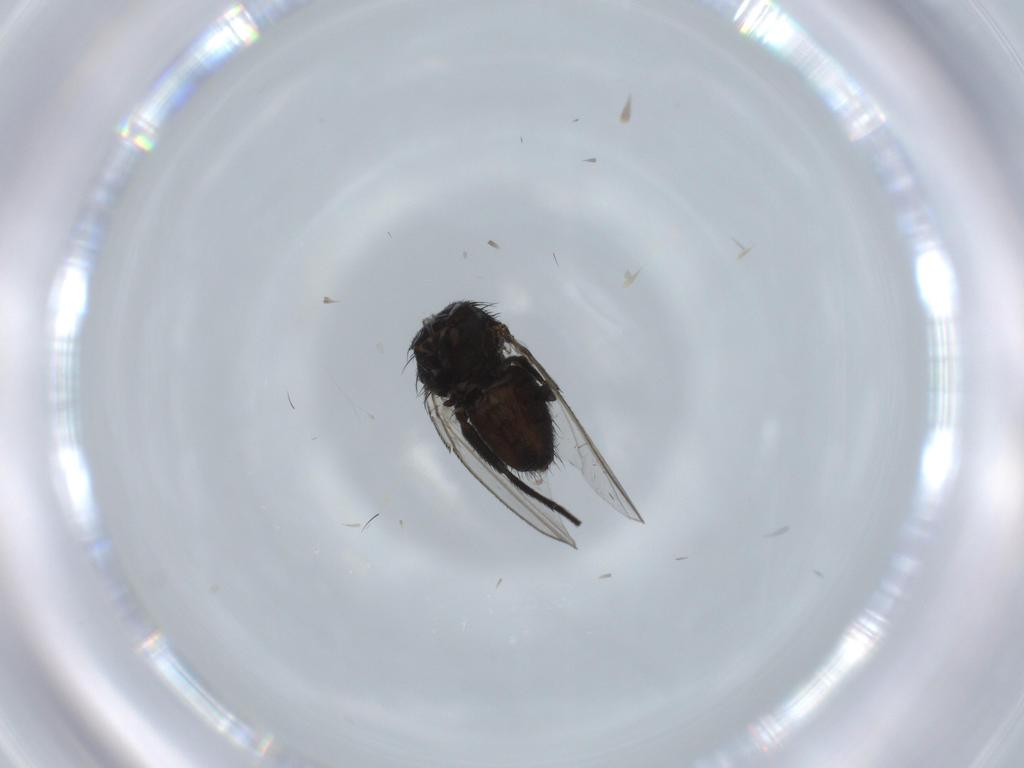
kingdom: Animalia
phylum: Arthropoda
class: Insecta
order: Diptera
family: Milichiidae
